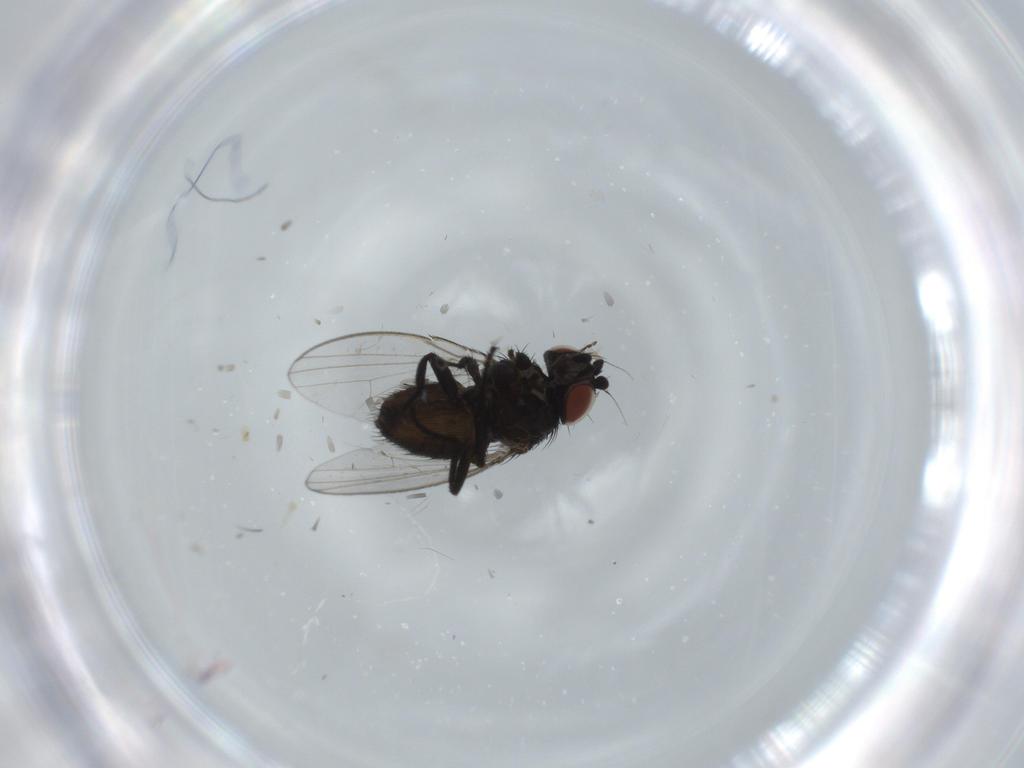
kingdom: Animalia
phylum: Arthropoda
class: Insecta
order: Diptera
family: Milichiidae
